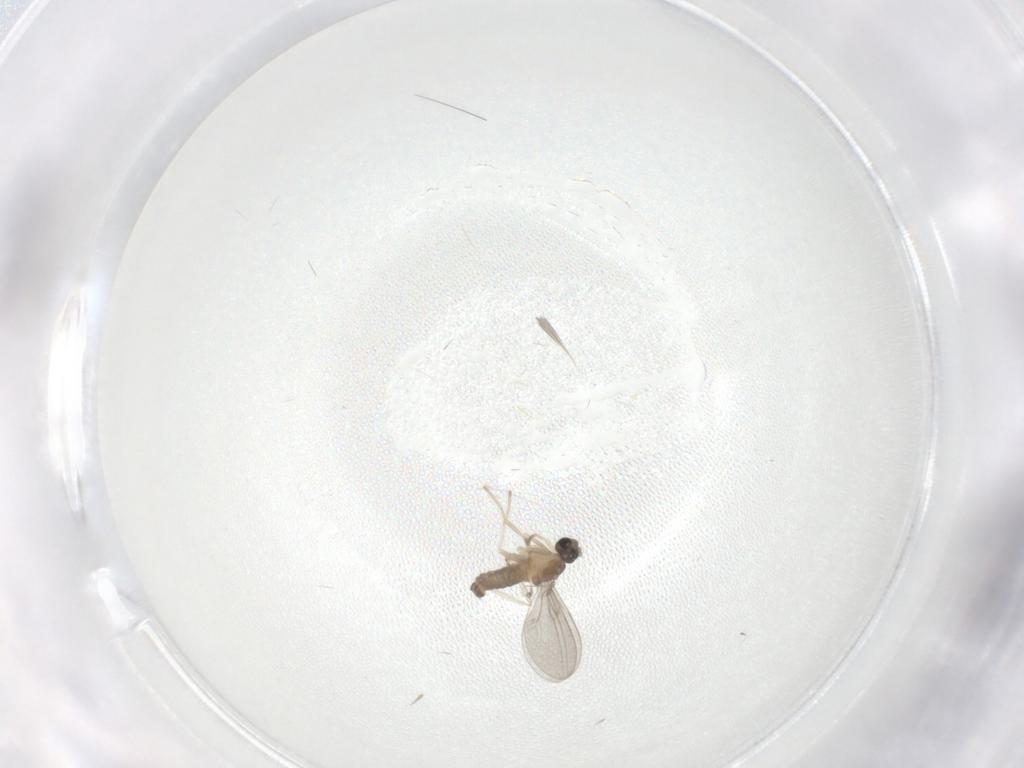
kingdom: Animalia
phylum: Arthropoda
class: Insecta
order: Diptera
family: Cecidomyiidae
